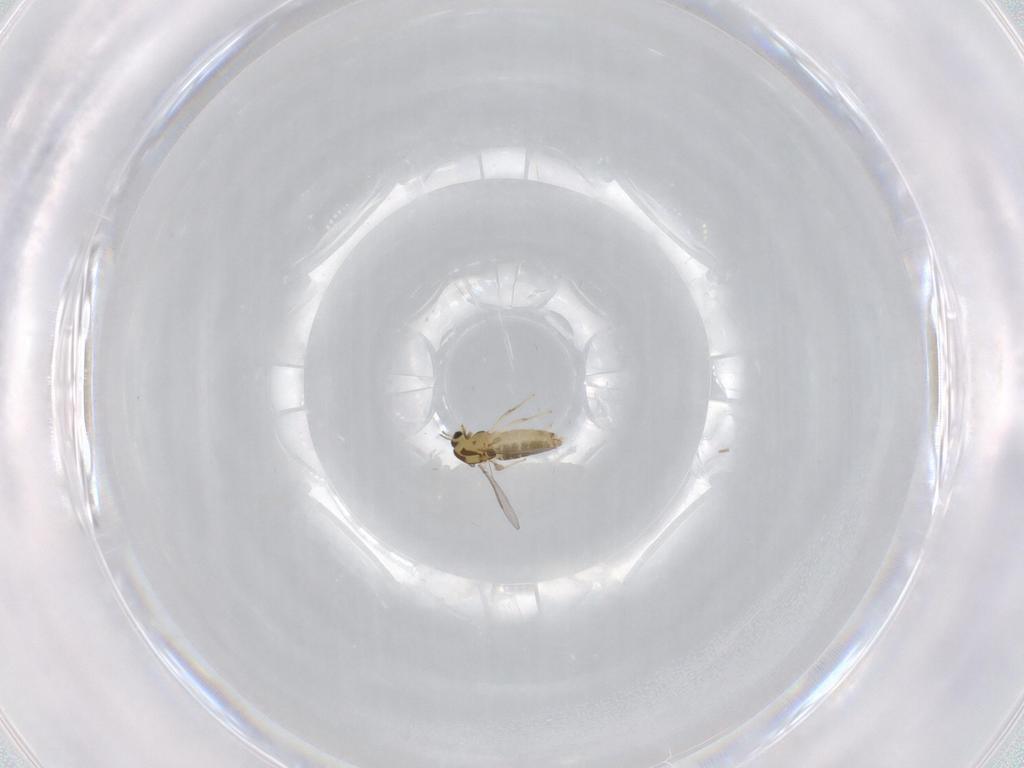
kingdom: Animalia
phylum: Arthropoda
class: Insecta
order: Diptera
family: Chironomidae
